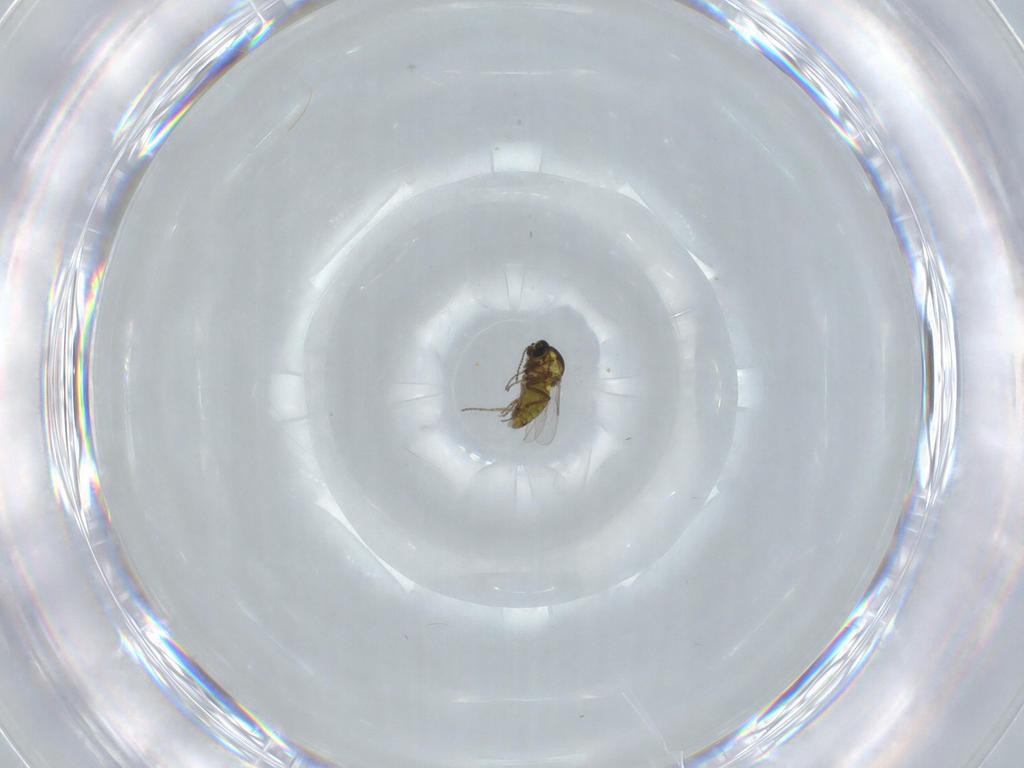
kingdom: Animalia
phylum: Arthropoda
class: Insecta
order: Diptera
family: Ceratopogonidae
